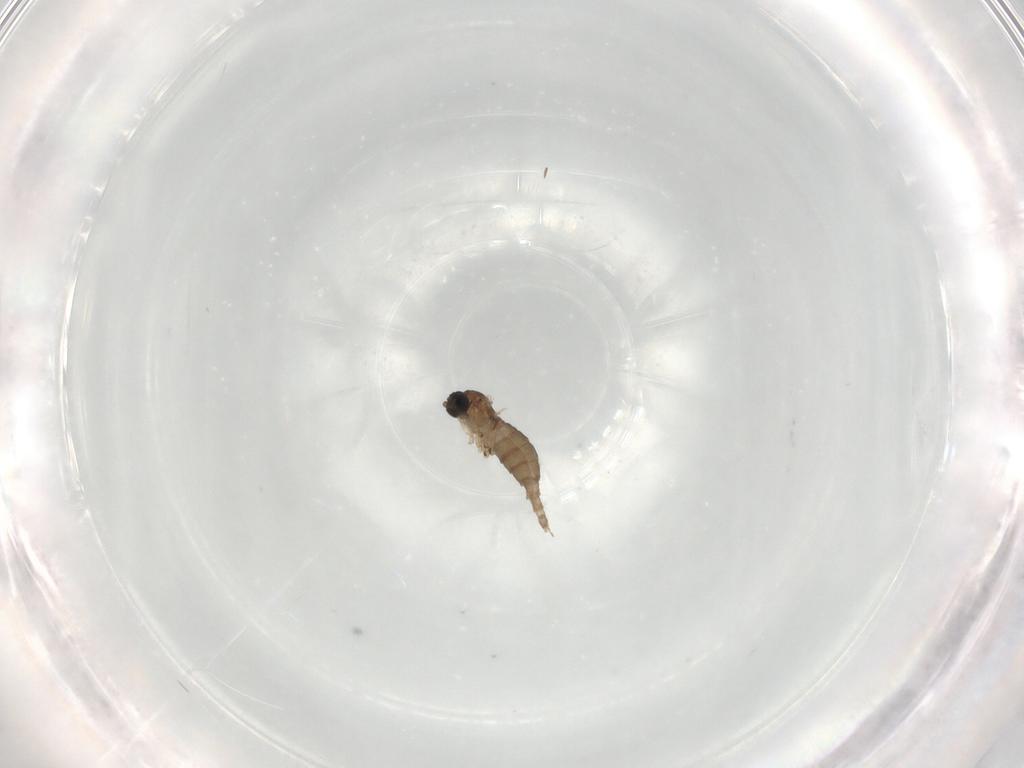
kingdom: Animalia
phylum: Arthropoda
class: Insecta
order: Diptera
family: Sciaridae
